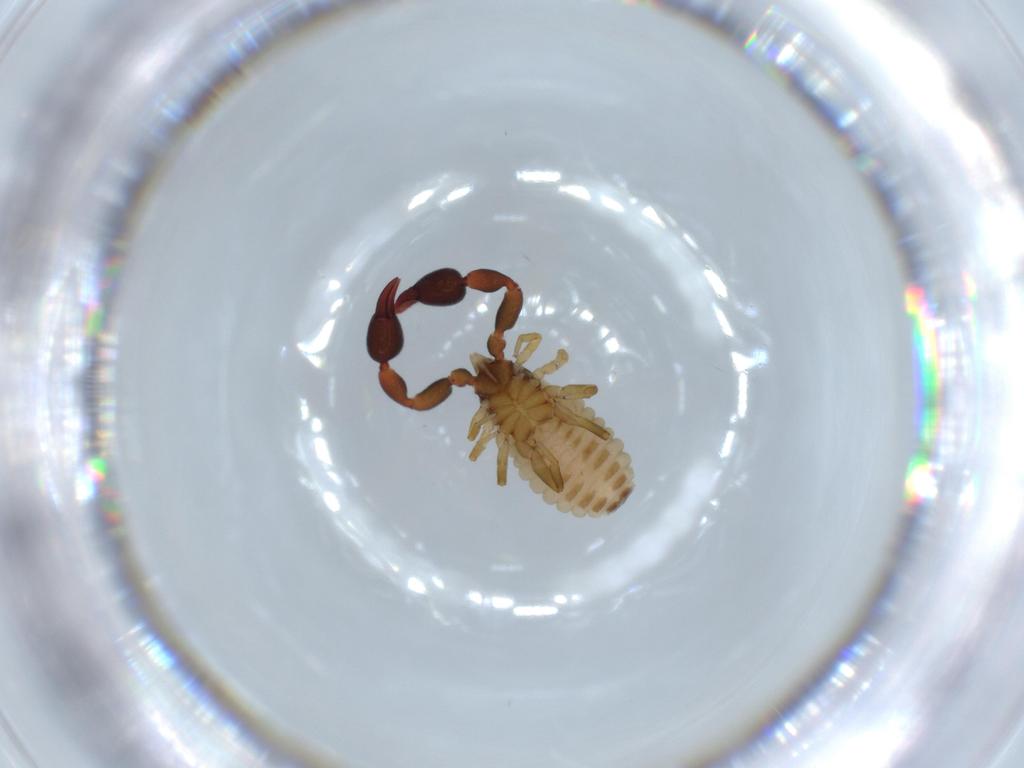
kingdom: Animalia
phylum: Arthropoda
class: Arachnida
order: Pseudoscorpiones
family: Chernetidae
